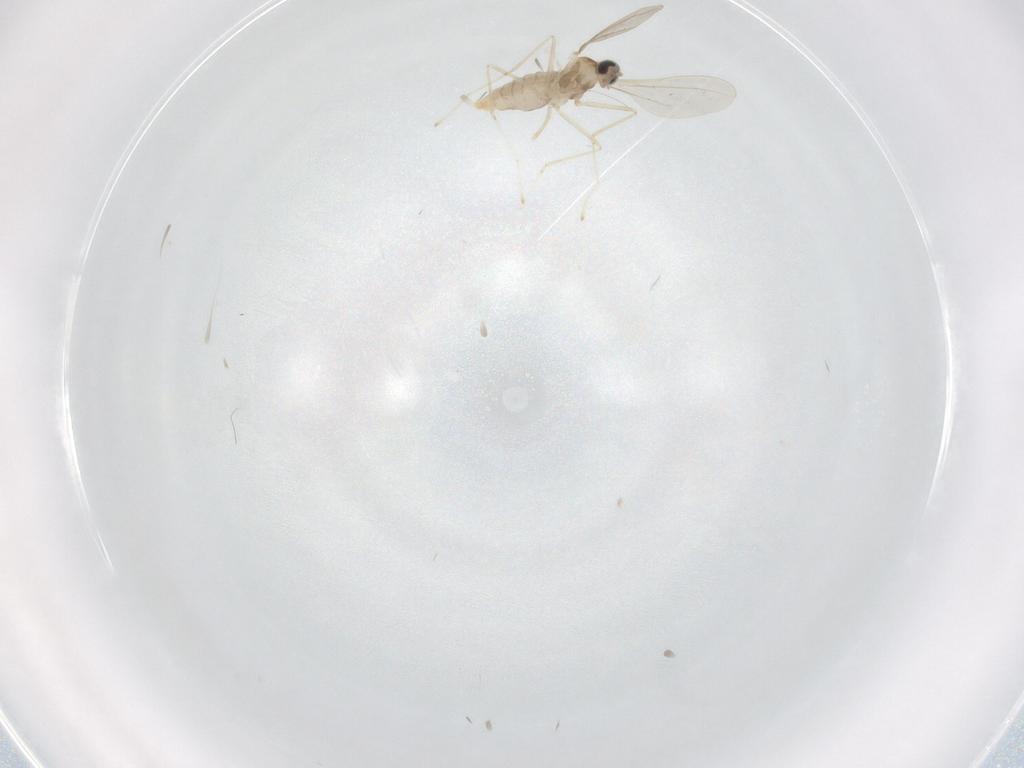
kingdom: Animalia
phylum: Arthropoda
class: Insecta
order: Diptera
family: Cecidomyiidae
